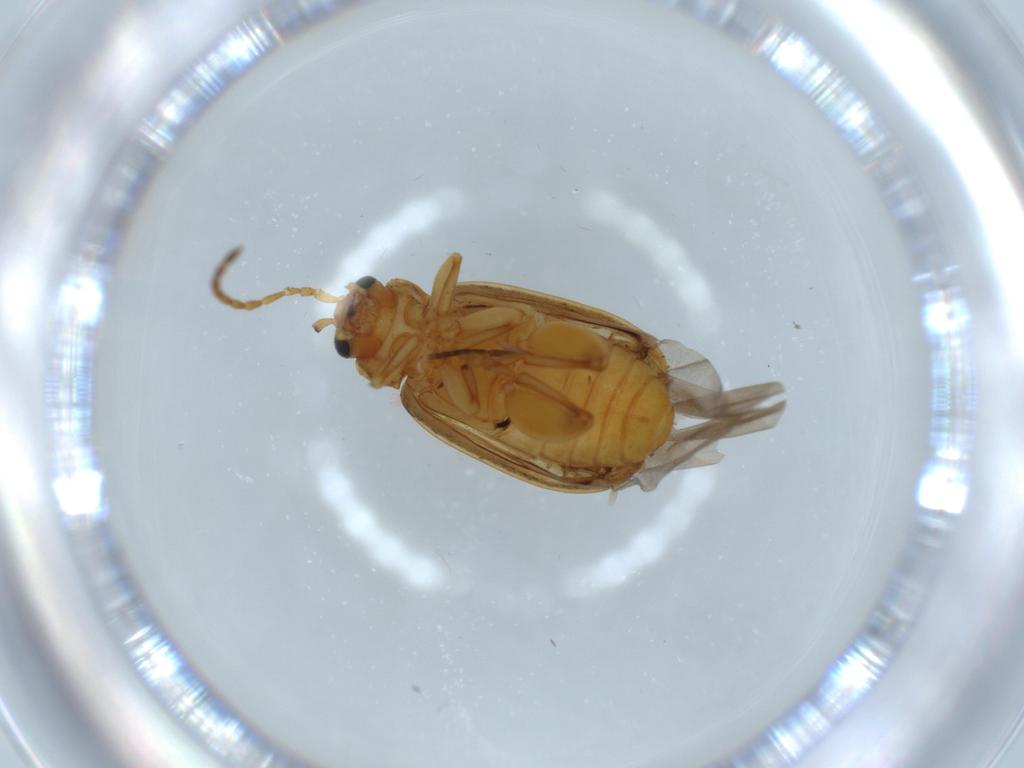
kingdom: Animalia
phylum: Arthropoda
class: Insecta
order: Coleoptera
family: Chrysomelidae
